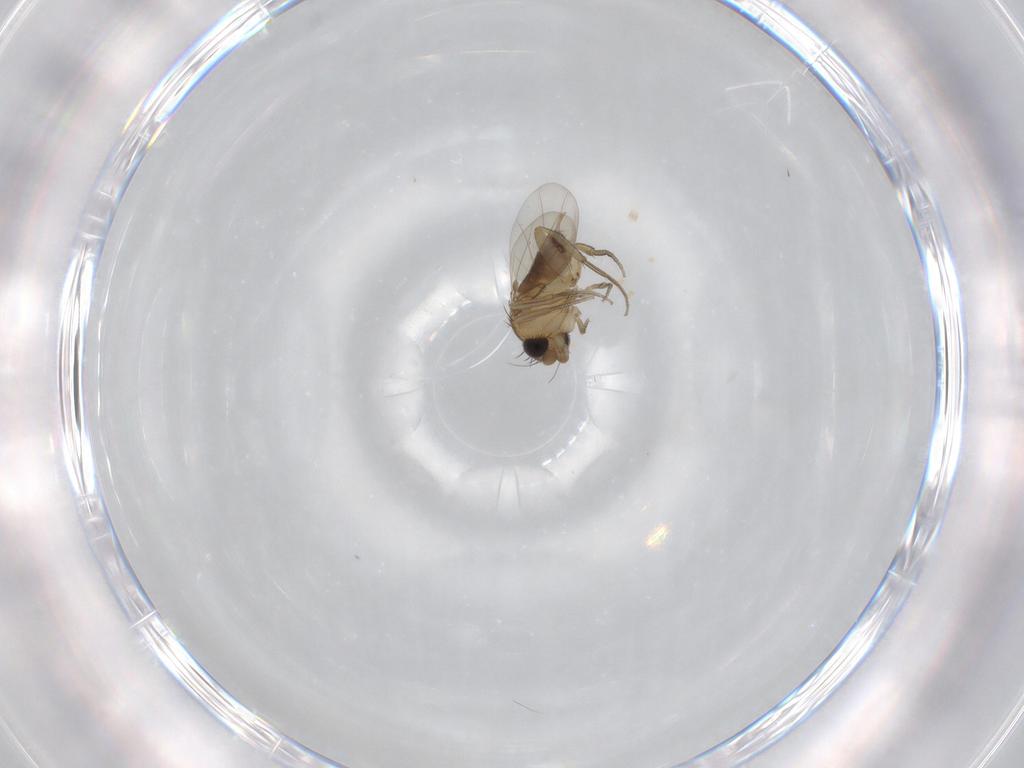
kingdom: Animalia
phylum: Arthropoda
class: Insecta
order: Diptera
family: Phoridae
